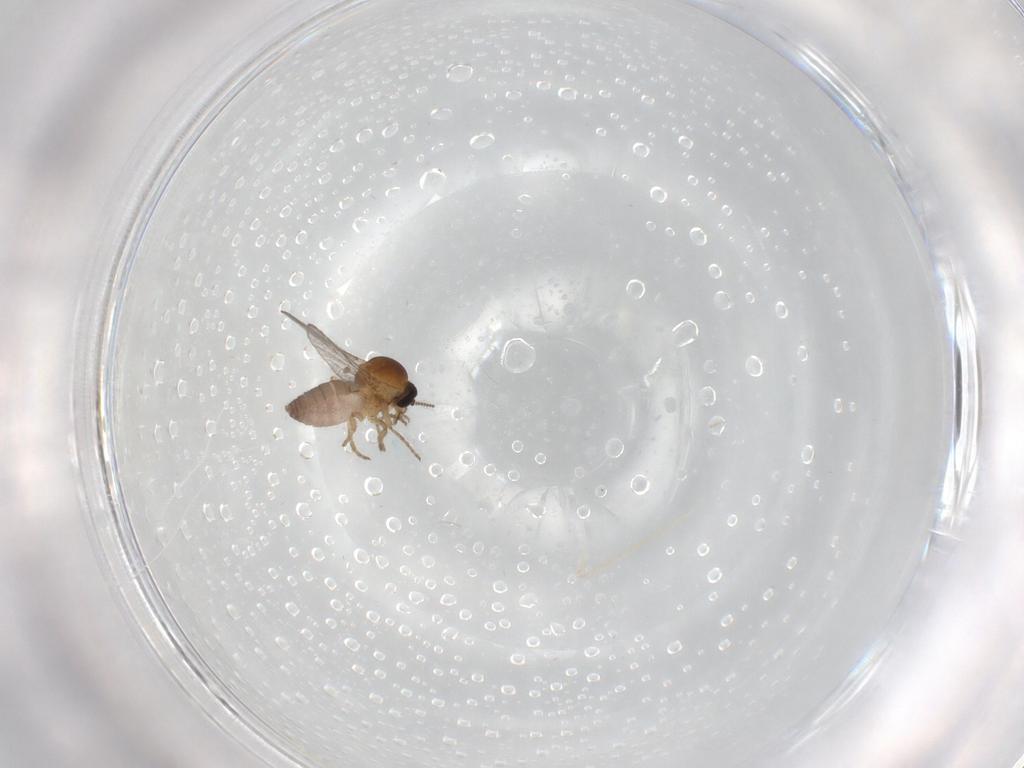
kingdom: Animalia
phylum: Arthropoda
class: Insecta
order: Diptera
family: Ceratopogonidae
